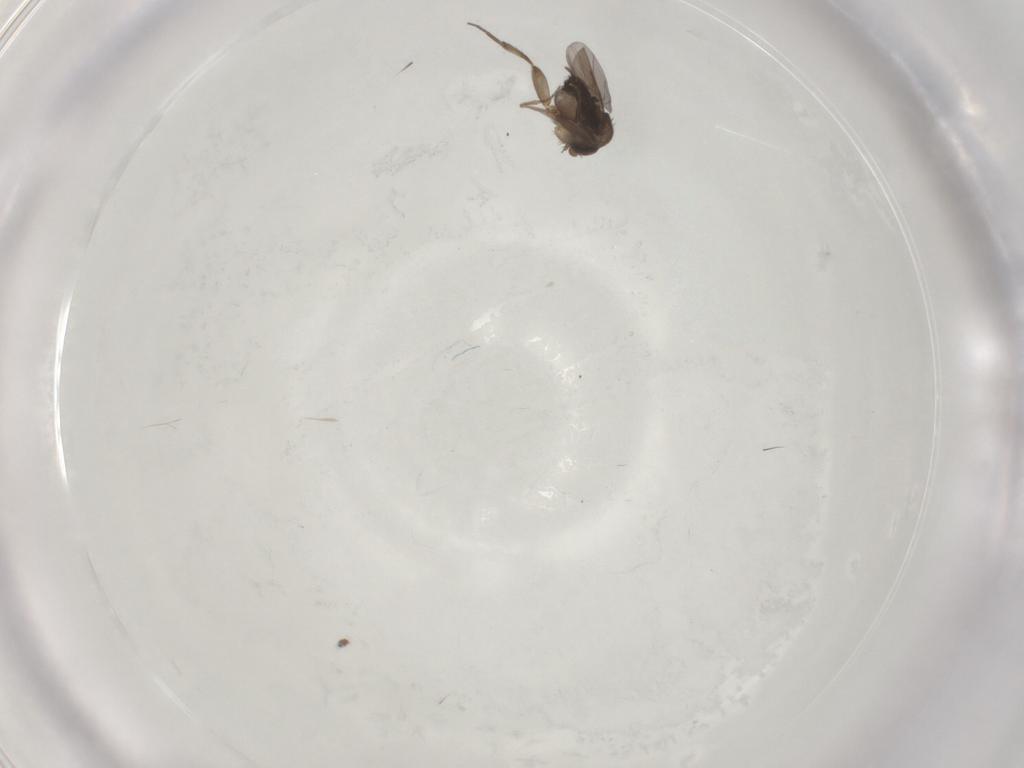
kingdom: Animalia
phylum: Arthropoda
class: Insecta
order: Diptera
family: Phoridae
